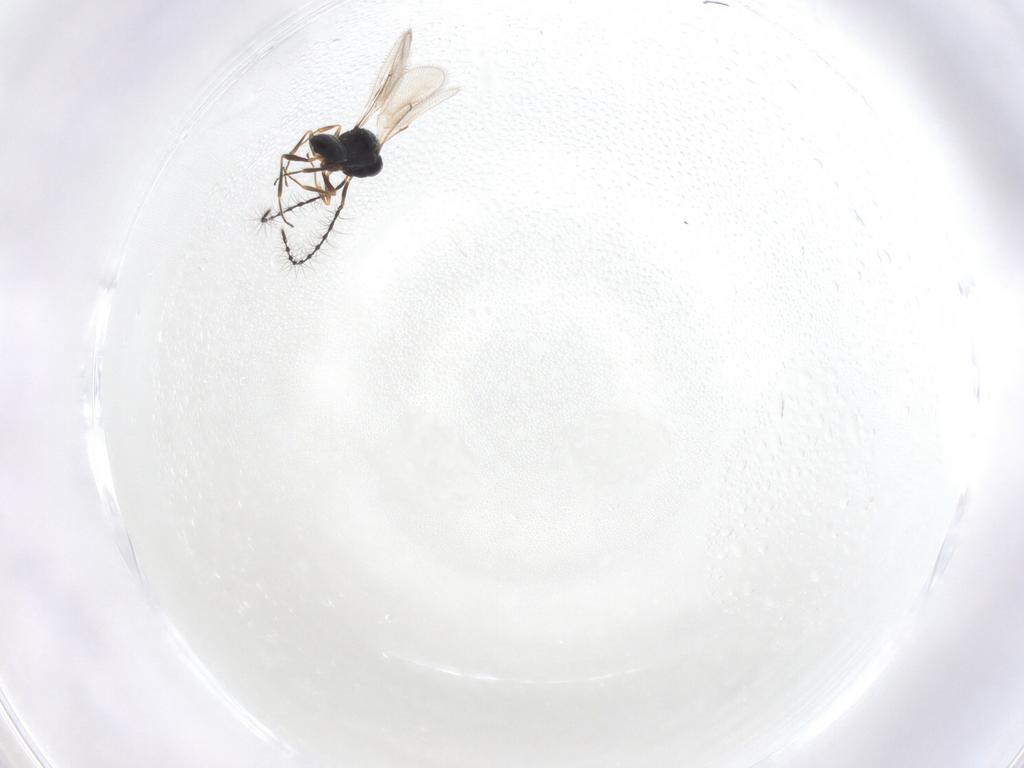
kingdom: Animalia
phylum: Arthropoda
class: Insecta
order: Hymenoptera
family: Scelionidae
